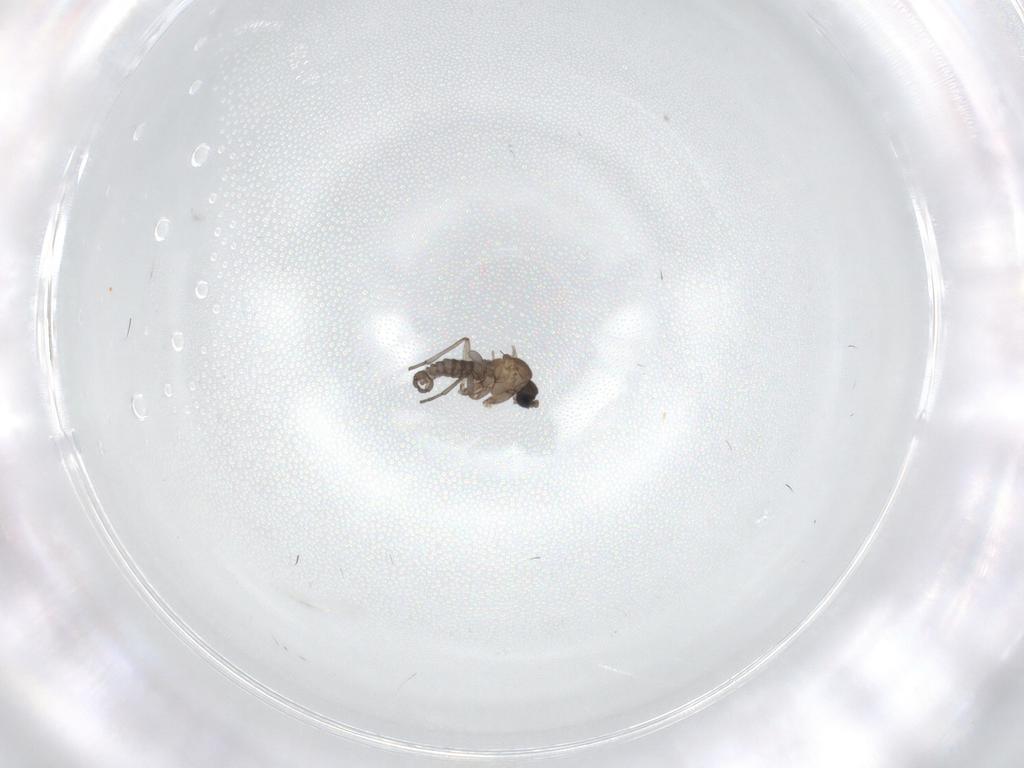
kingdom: Animalia
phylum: Arthropoda
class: Insecta
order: Diptera
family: Sciaridae
